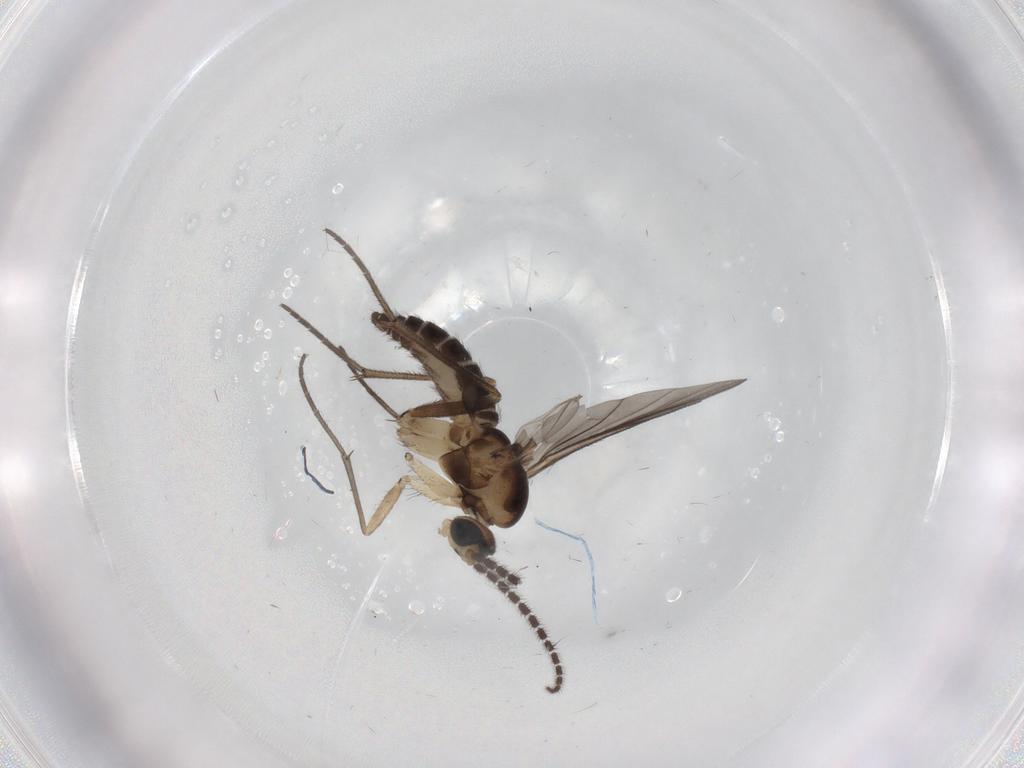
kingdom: Animalia
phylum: Arthropoda
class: Insecta
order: Diptera
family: Sciaridae
